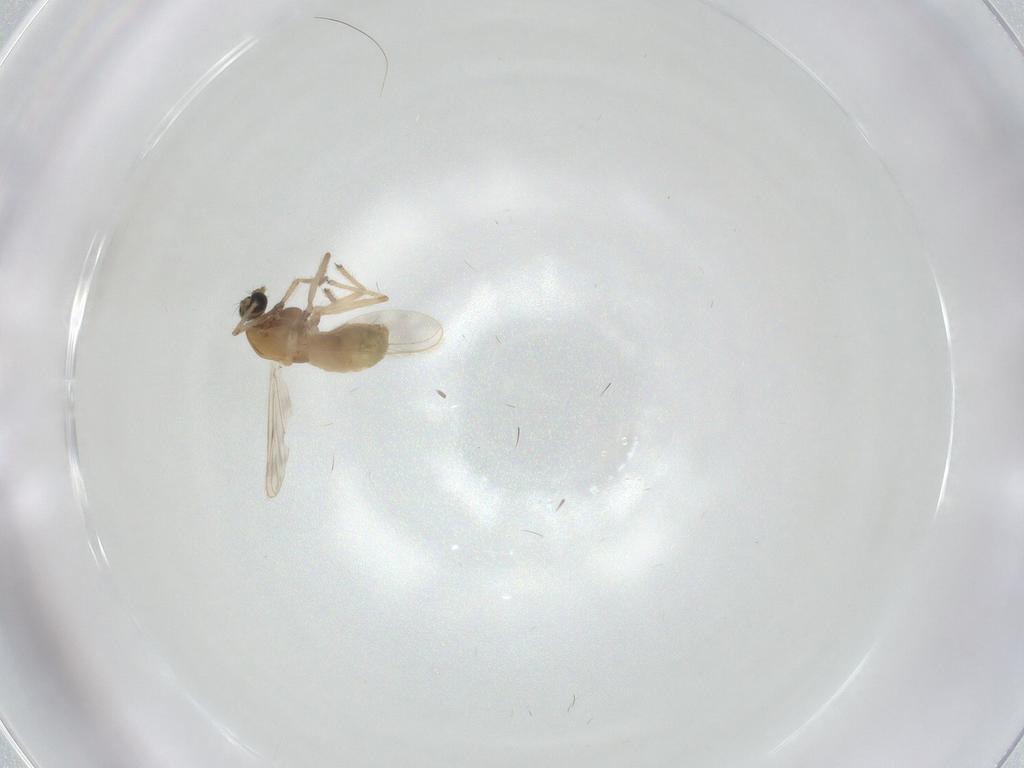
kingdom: Animalia
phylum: Arthropoda
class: Insecta
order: Diptera
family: Chironomidae
